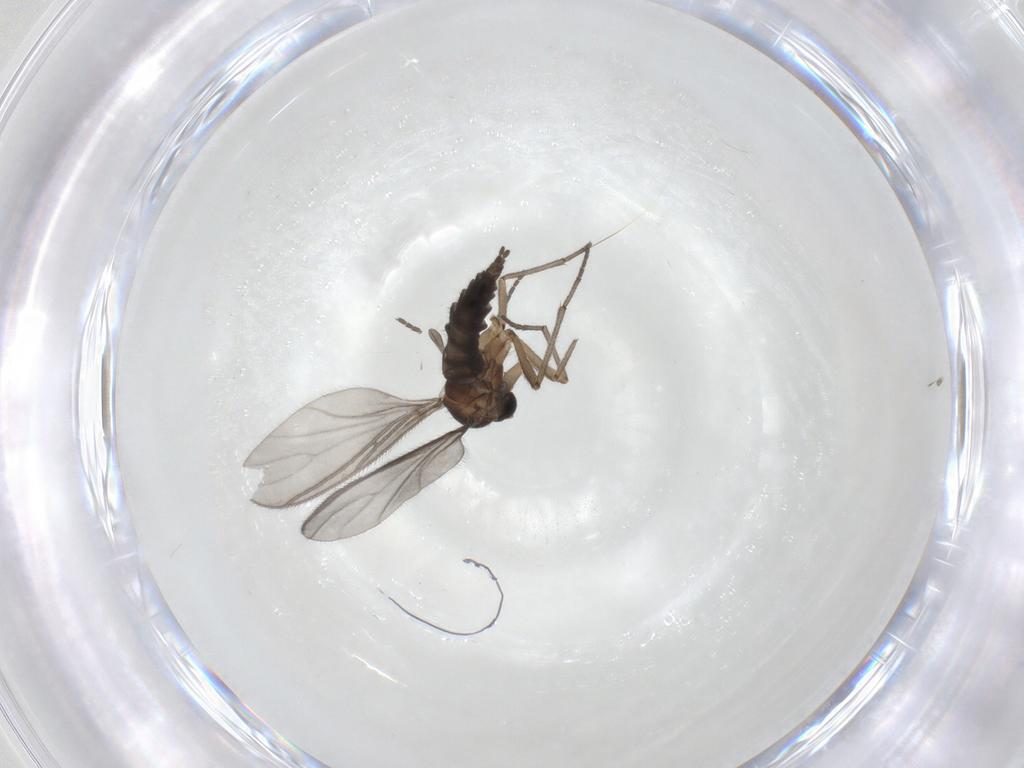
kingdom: Animalia
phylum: Arthropoda
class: Insecta
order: Diptera
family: Sciaridae
